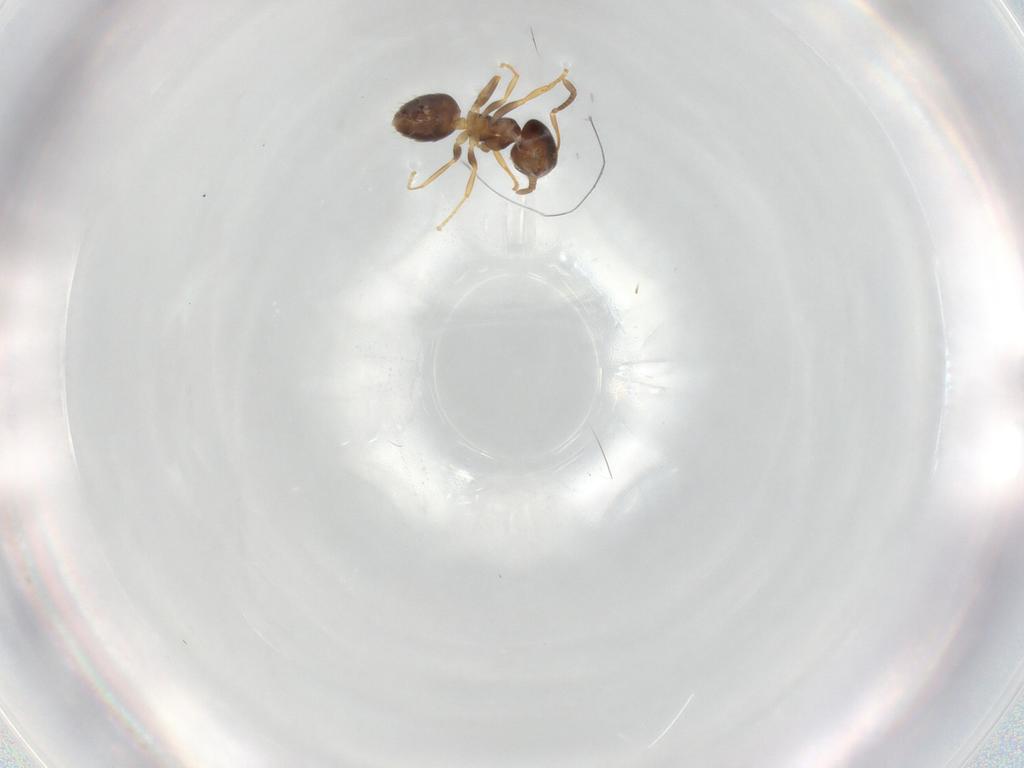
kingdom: Animalia
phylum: Arthropoda
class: Insecta
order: Hymenoptera
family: Formicidae
